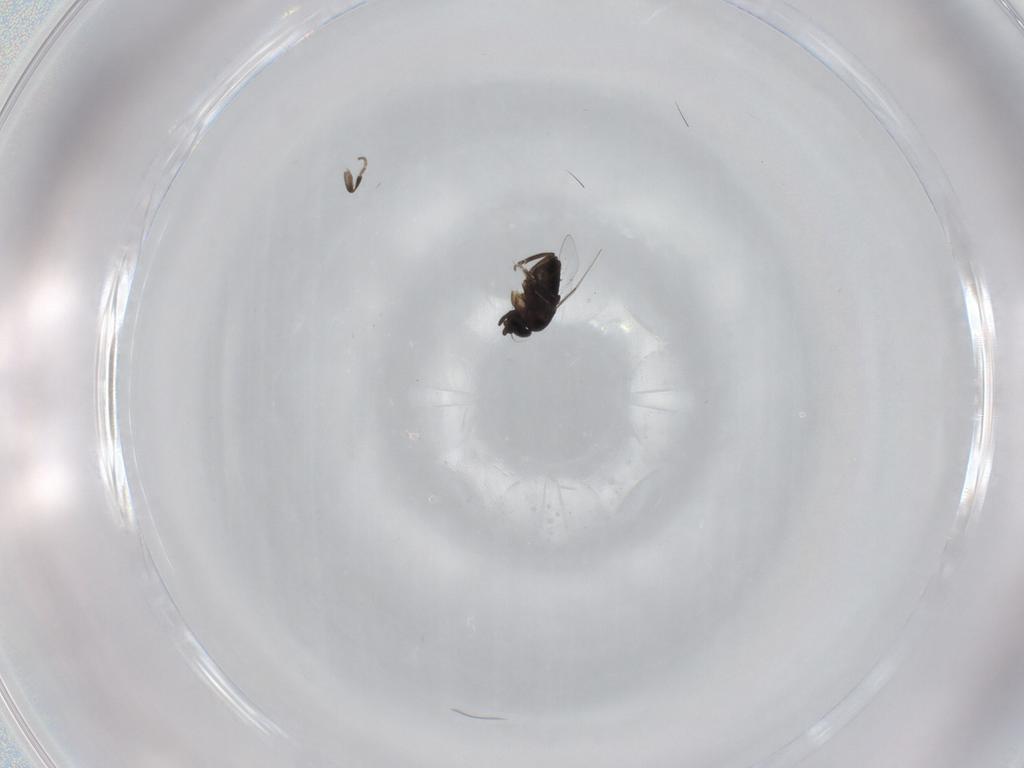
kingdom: Animalia
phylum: Arthropoda
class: Insecta
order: Diptera
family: Phoridae
